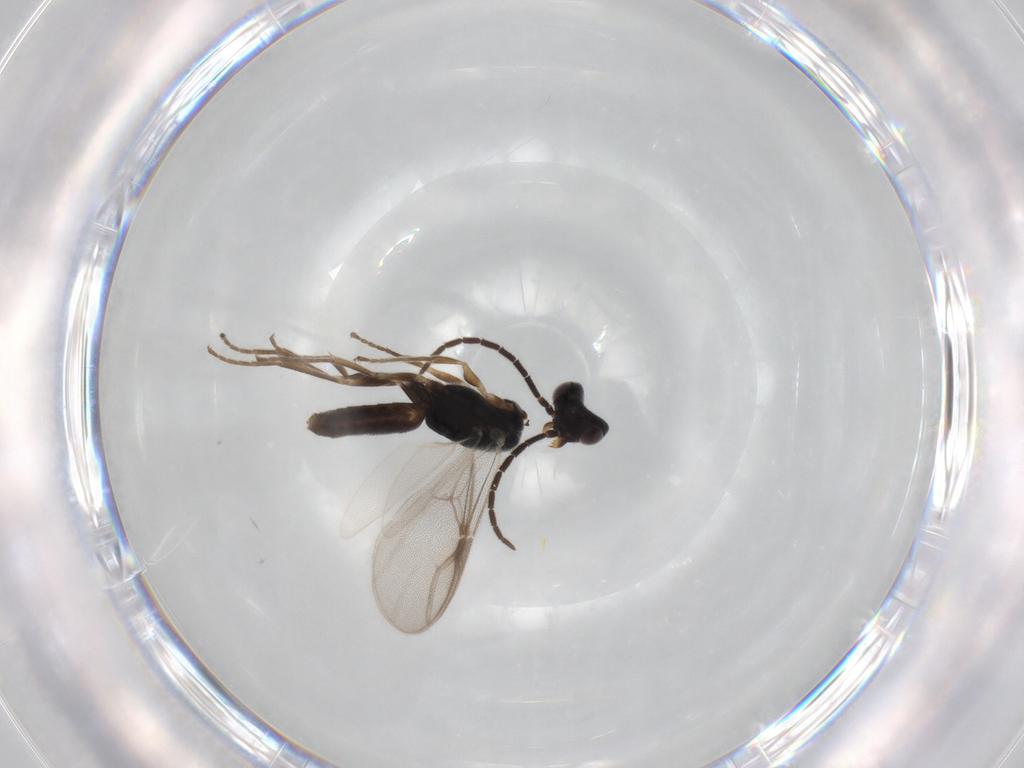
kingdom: Animalia
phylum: Arthropoda
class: Insecta
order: Hymenoptera
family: Dryinidae
